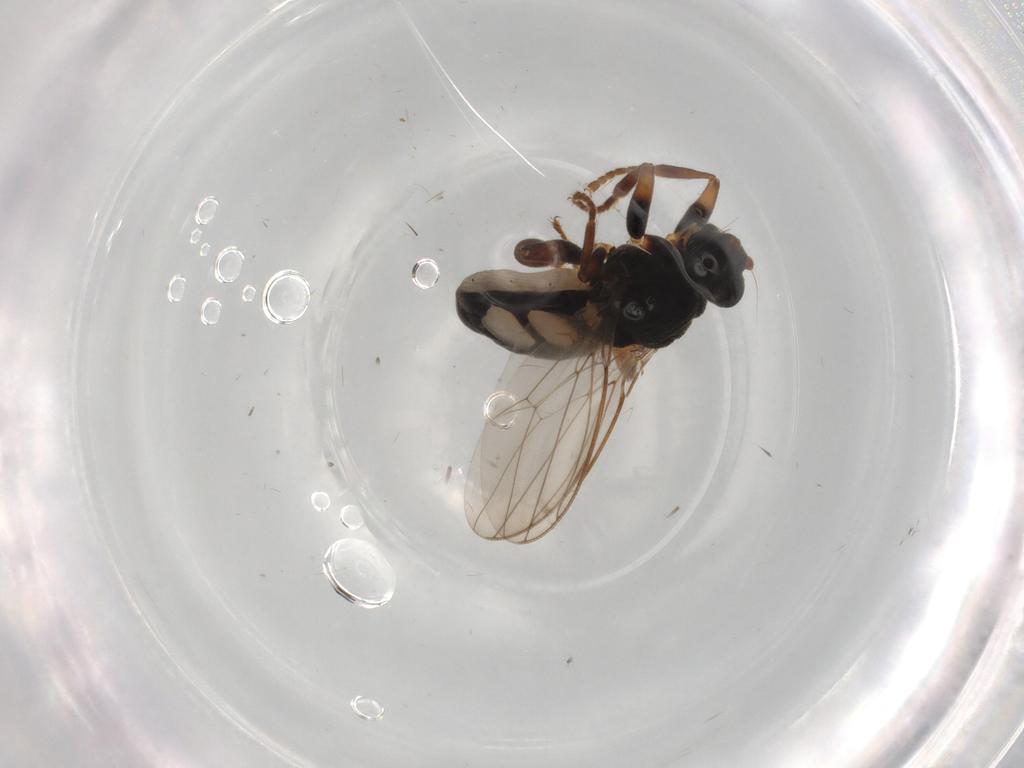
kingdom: Animalia
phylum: Arthropoda
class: Insecta
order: Diptera
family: Sphaeroceridae
